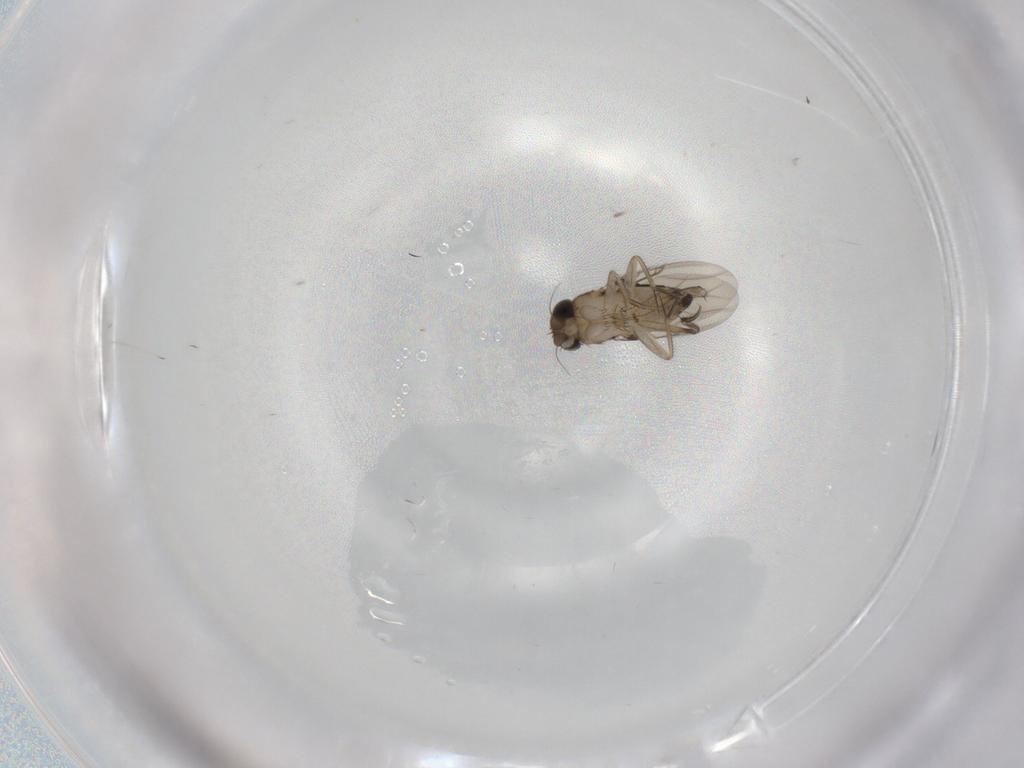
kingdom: Animalia
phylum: Arthropoda
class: Insecta
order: Diptera
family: Phoridae
